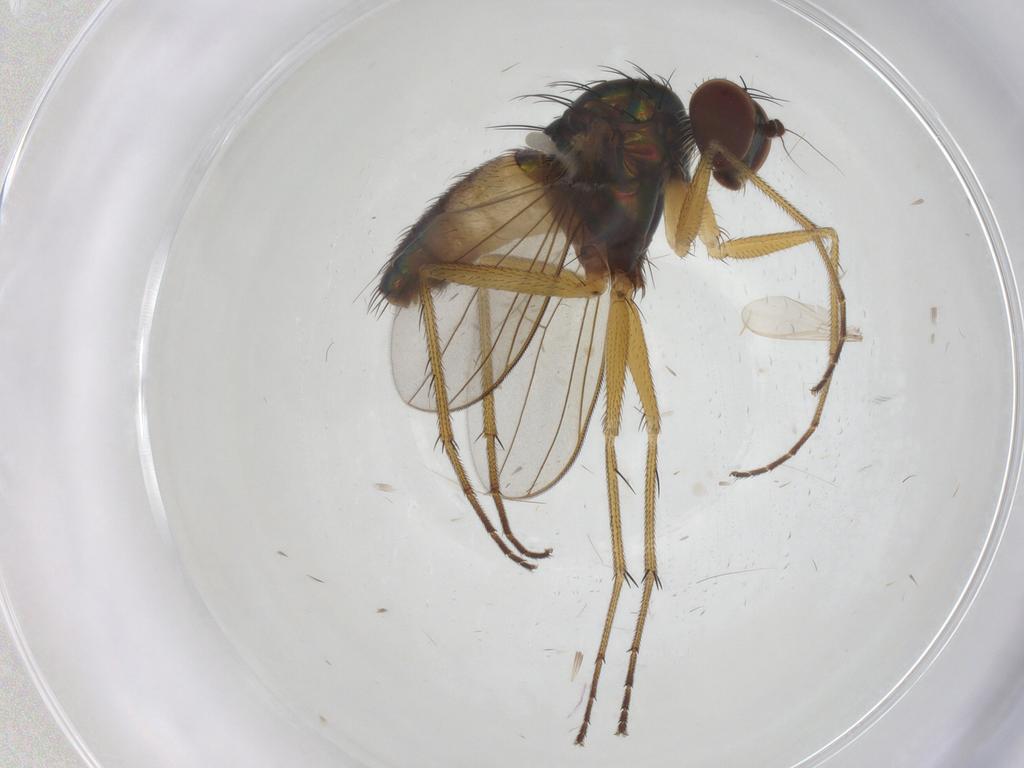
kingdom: Animalia
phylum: Arthropoda
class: Insecta
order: Diptera
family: Dolichopodidae
